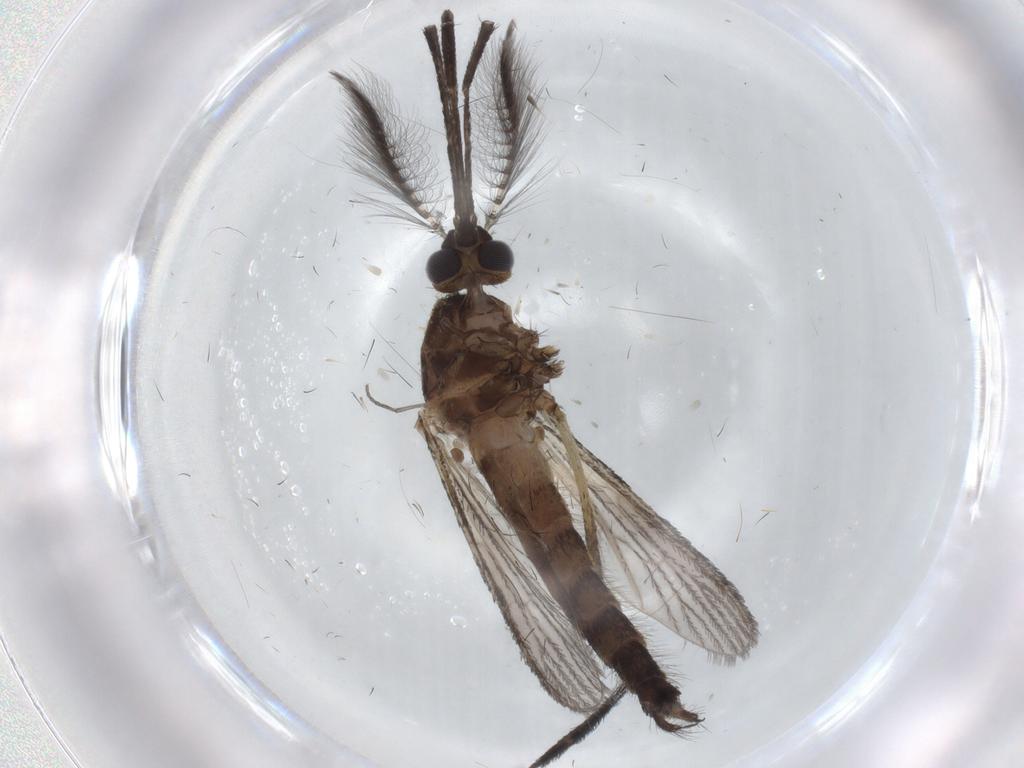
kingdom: Animalia
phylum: Arthropoda
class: Insecta
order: Diptera
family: Cecidomyiidae
